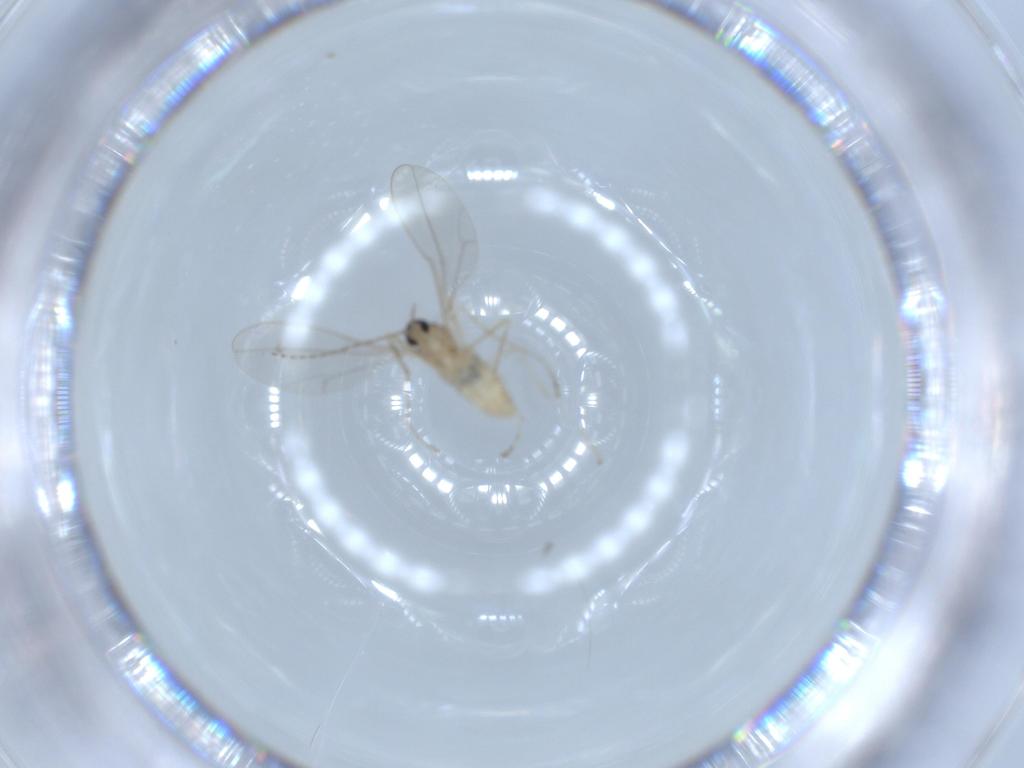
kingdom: Animalia
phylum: Arthropoda
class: Insecta
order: Diptera
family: Cecidomyiidae
